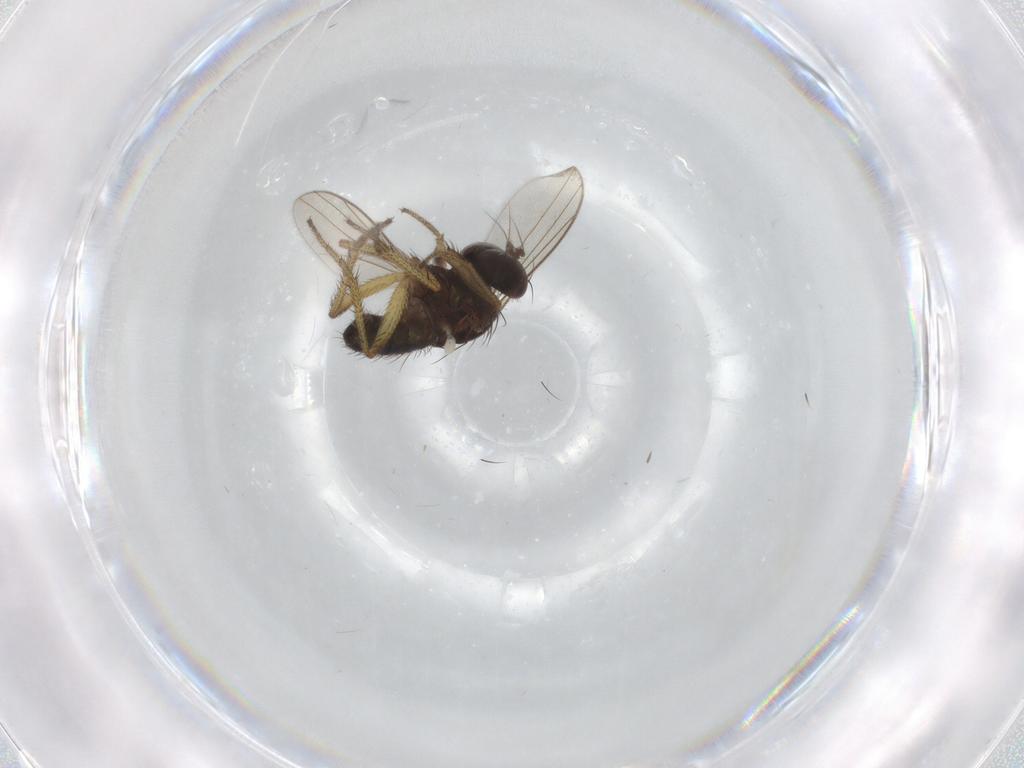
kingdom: Animalia
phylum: Arthropoda
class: Insecta
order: Diptera
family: Dolichopodidae
